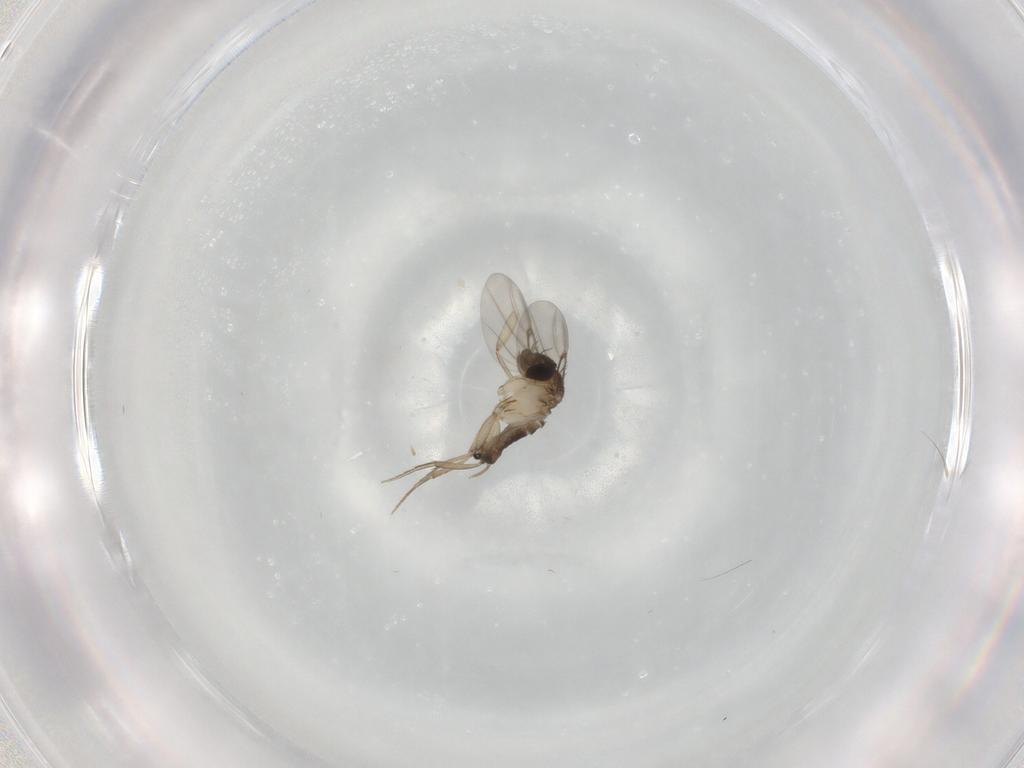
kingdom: Animalia
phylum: Arthropoda
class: Insecta
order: Diptera
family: Phoridae
